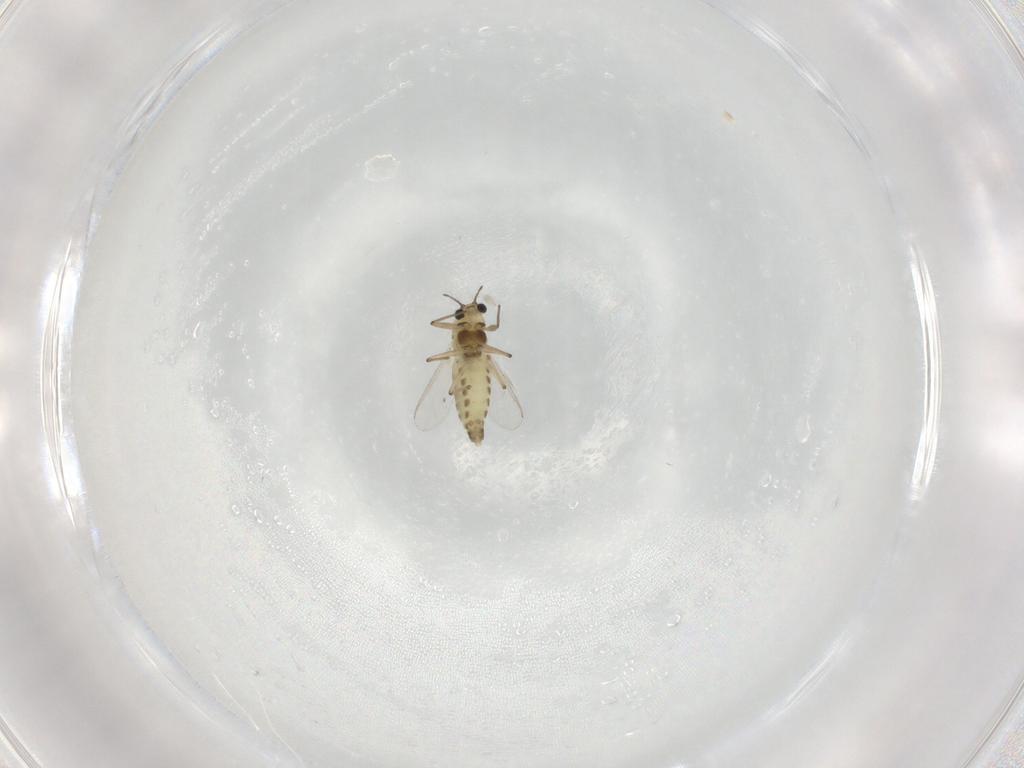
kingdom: Animalia
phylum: Arthropoda
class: Insecta
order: Diptera
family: Chironomidae
